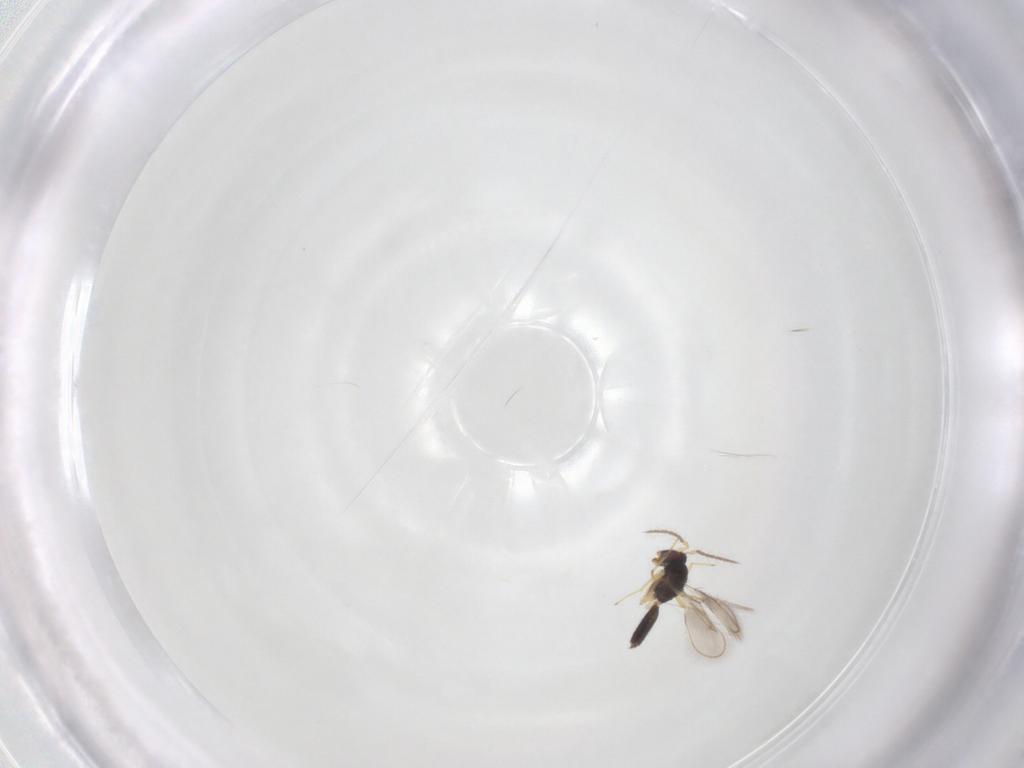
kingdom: Animalia
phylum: Arthropoda
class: Insecta
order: Hymenoptera
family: Eulophidae
